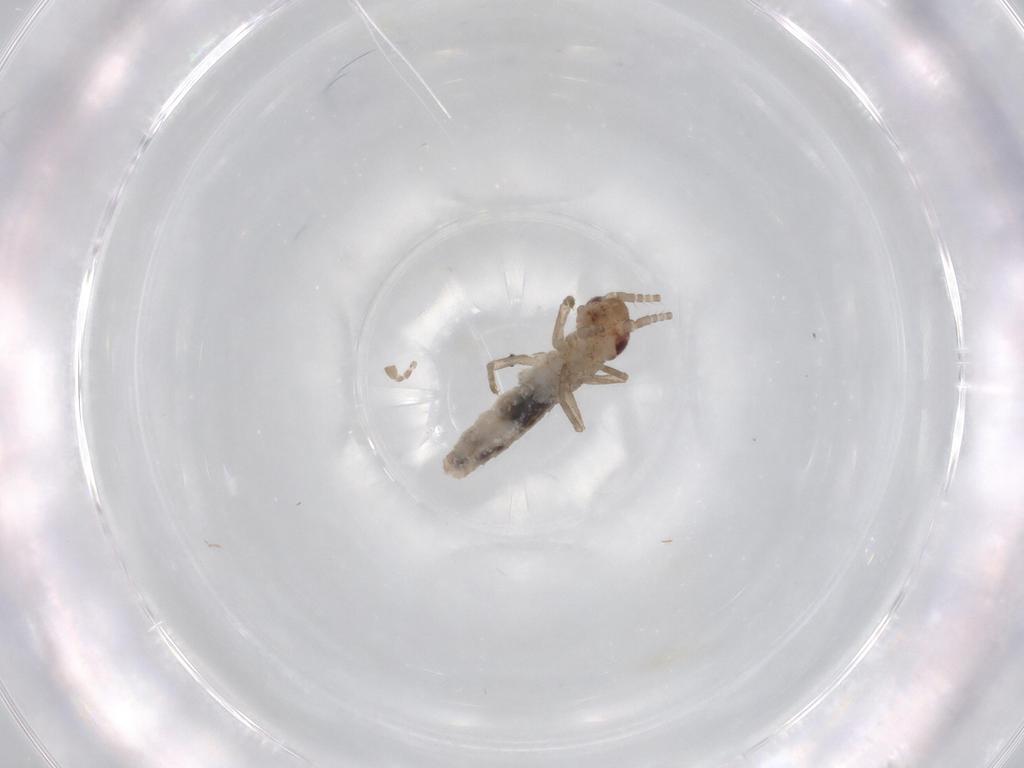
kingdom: Animalia
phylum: Arthropoda
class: Insecta
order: Orthoptera
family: Mogoplistidae
